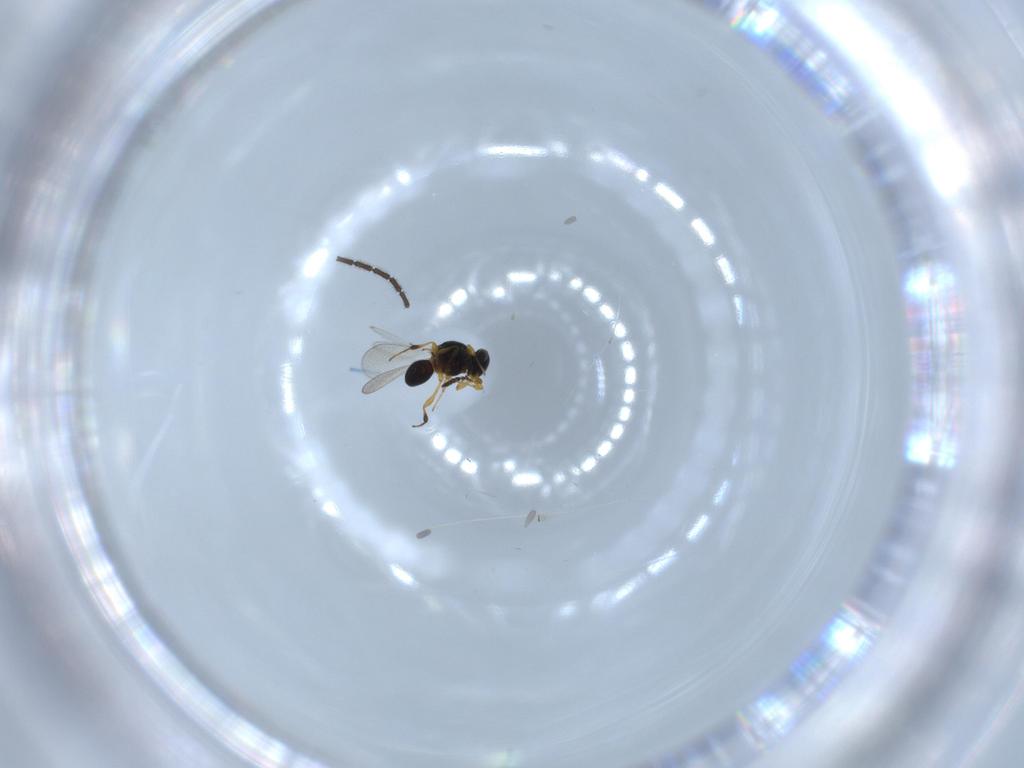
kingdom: Animalia
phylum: Arthropoda
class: Insecta
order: Hymenoptera
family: Platygastridae
